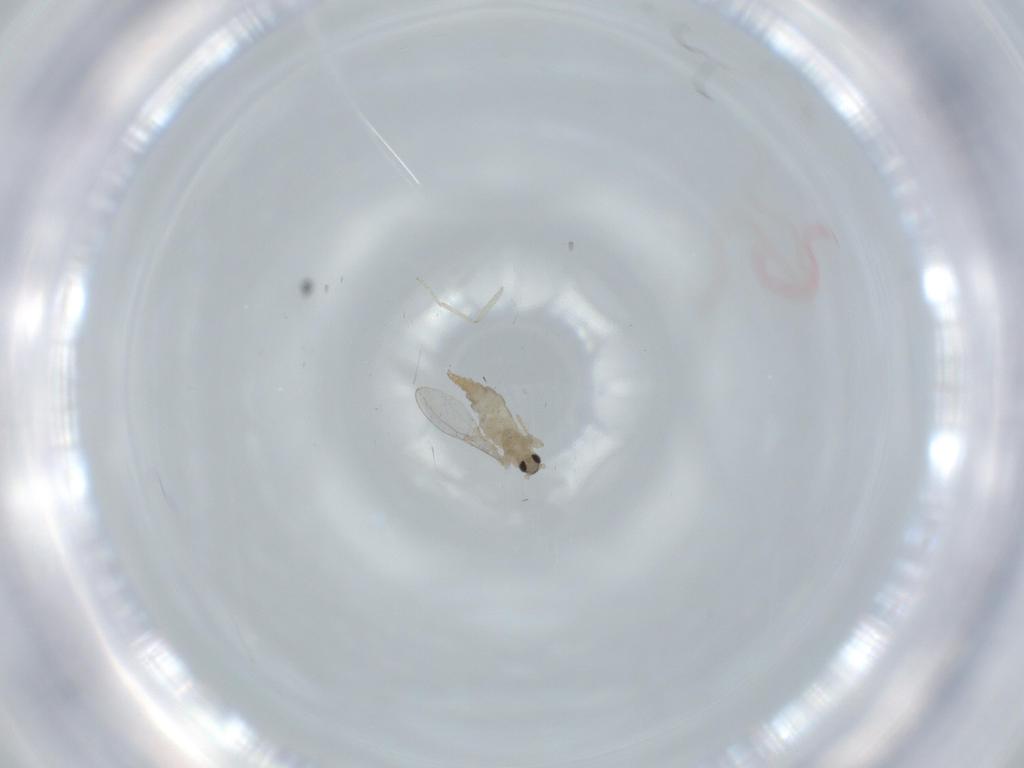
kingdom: Animalia
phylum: Arthropoda
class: Insecta
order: Diptera
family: Cecidomyiidae
